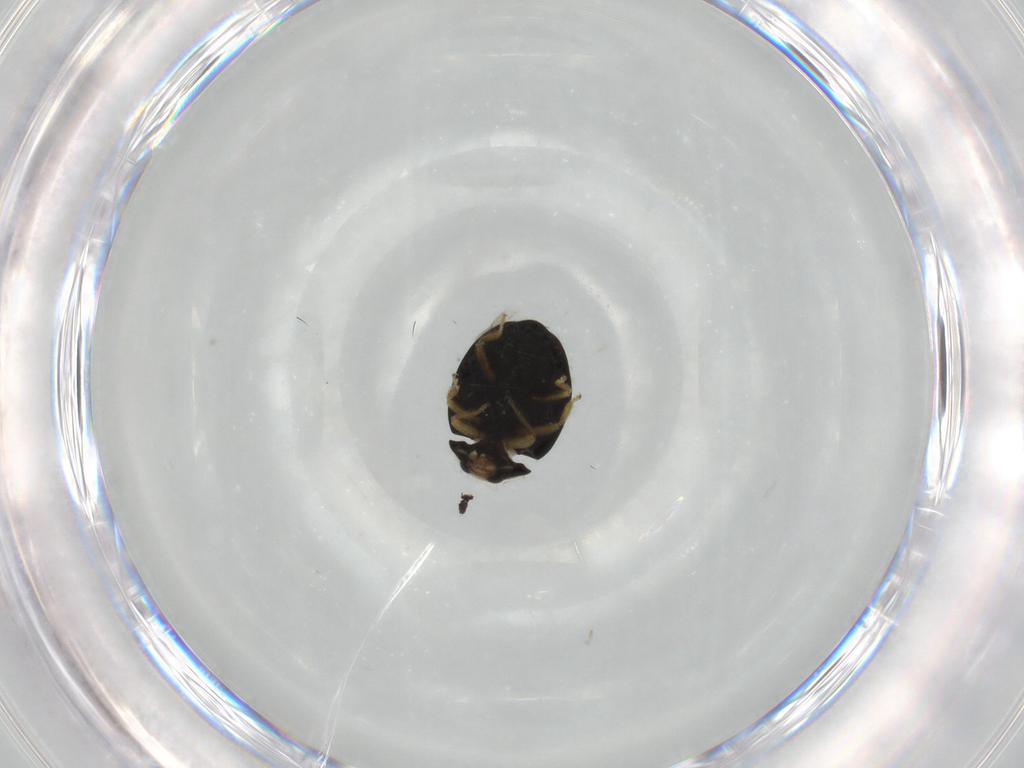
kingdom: Animalia
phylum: Arthropoda
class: Insecta
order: Coleoptera
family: Coccinellidae
